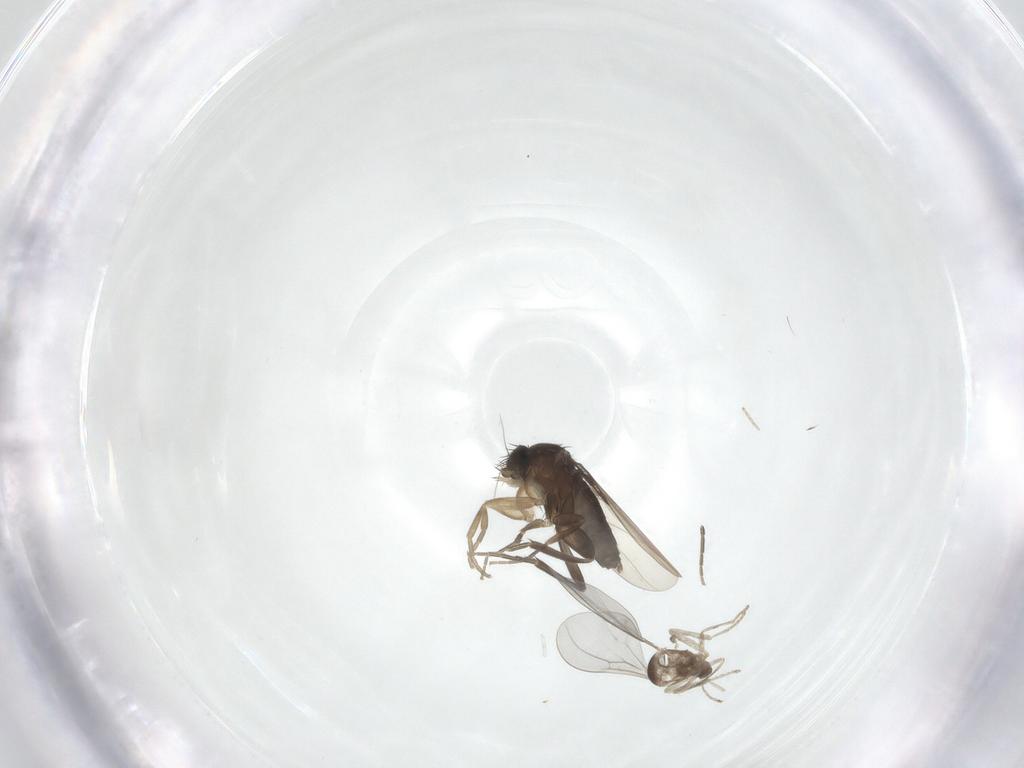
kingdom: Animalia
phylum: Arthropoda
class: Insecta
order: Diptera
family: Phoridae
